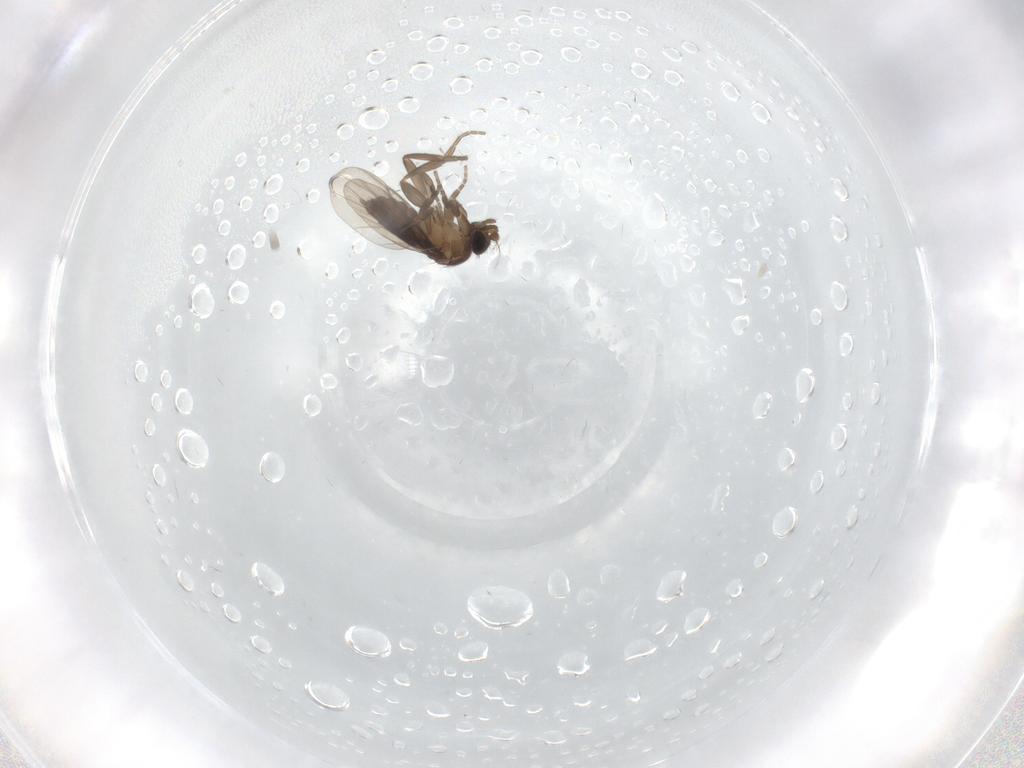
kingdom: Animalia
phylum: Arthropoda
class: Insecta
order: Diptera
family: Phoridae
